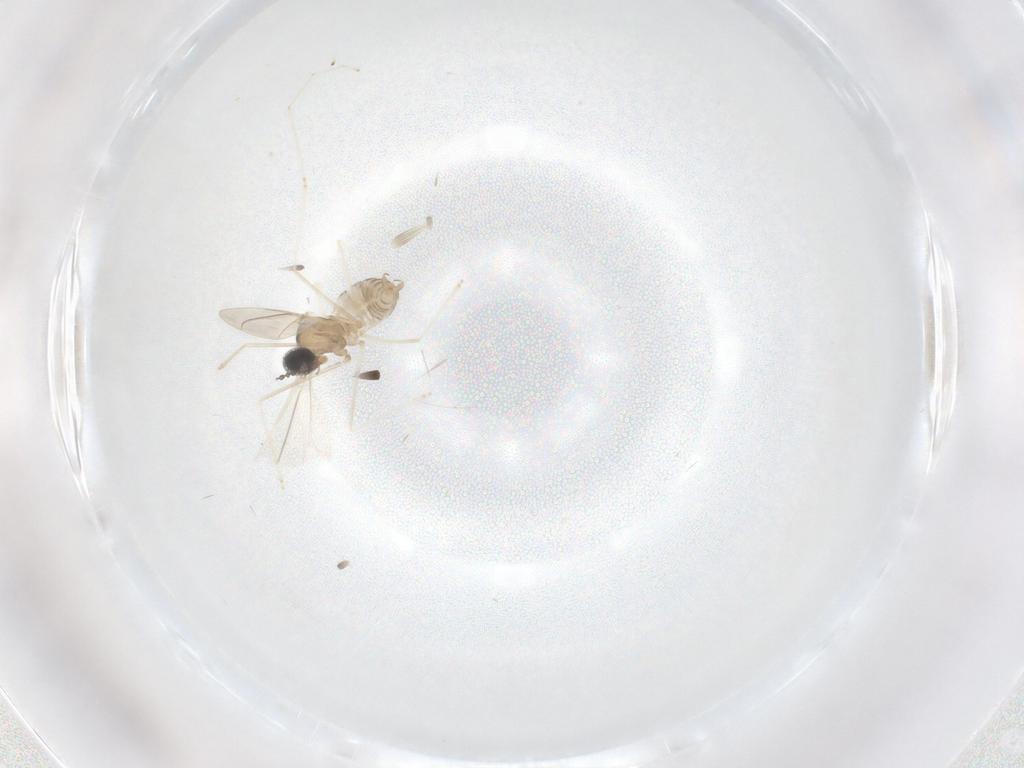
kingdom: Animalia
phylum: Arthropoda
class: Insecta
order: Diptera
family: Cecidomyiidae
